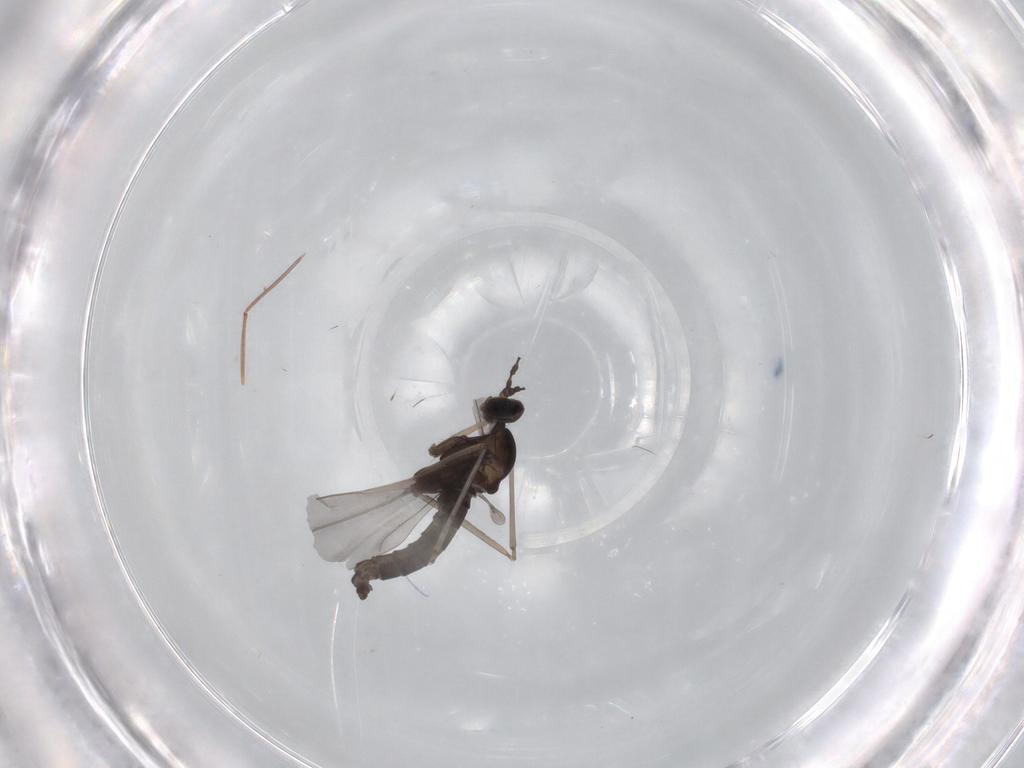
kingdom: Animalia
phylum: Arthropoda
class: Insecta
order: Diptera
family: Cecidomyiidae
